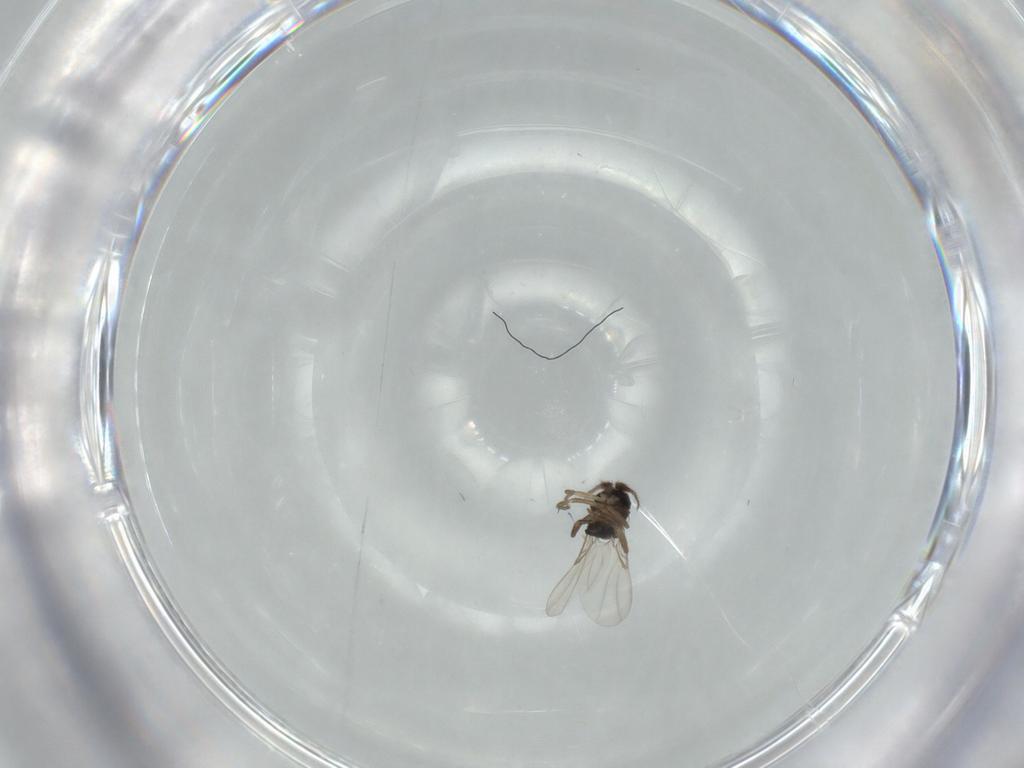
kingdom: Animalia
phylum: Arthropoda
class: Insecta
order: Diptera
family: Phoridae
